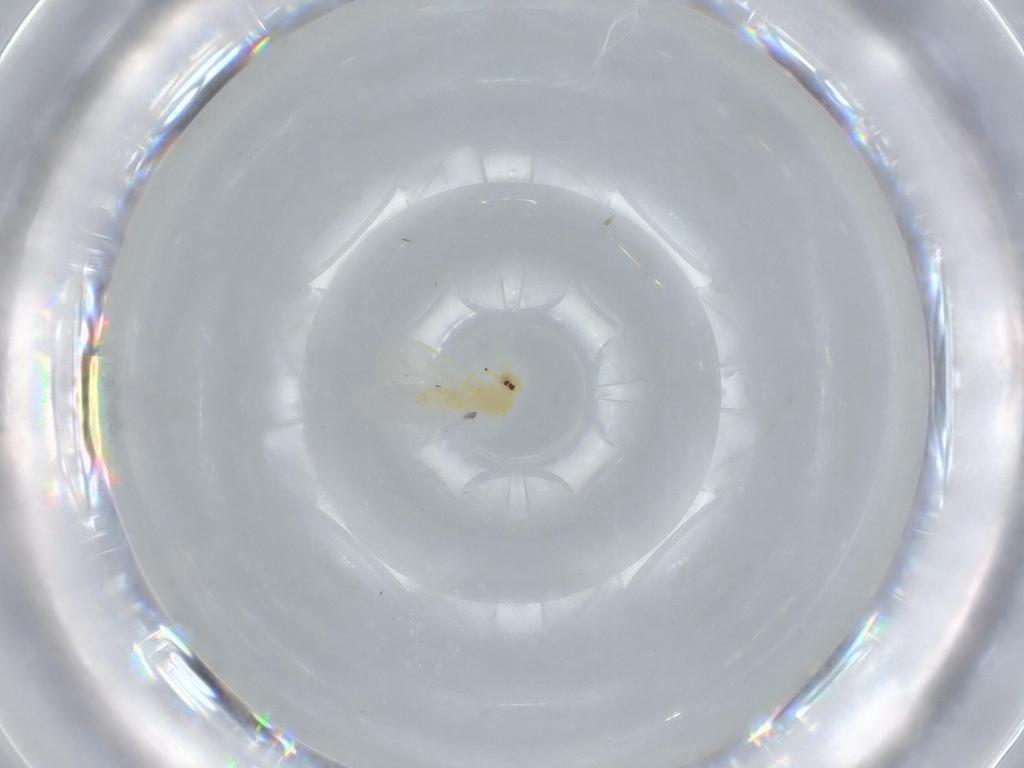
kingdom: Animalia
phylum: Arthropoda
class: Insecta
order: Hemiptera
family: Aleyrodidae
